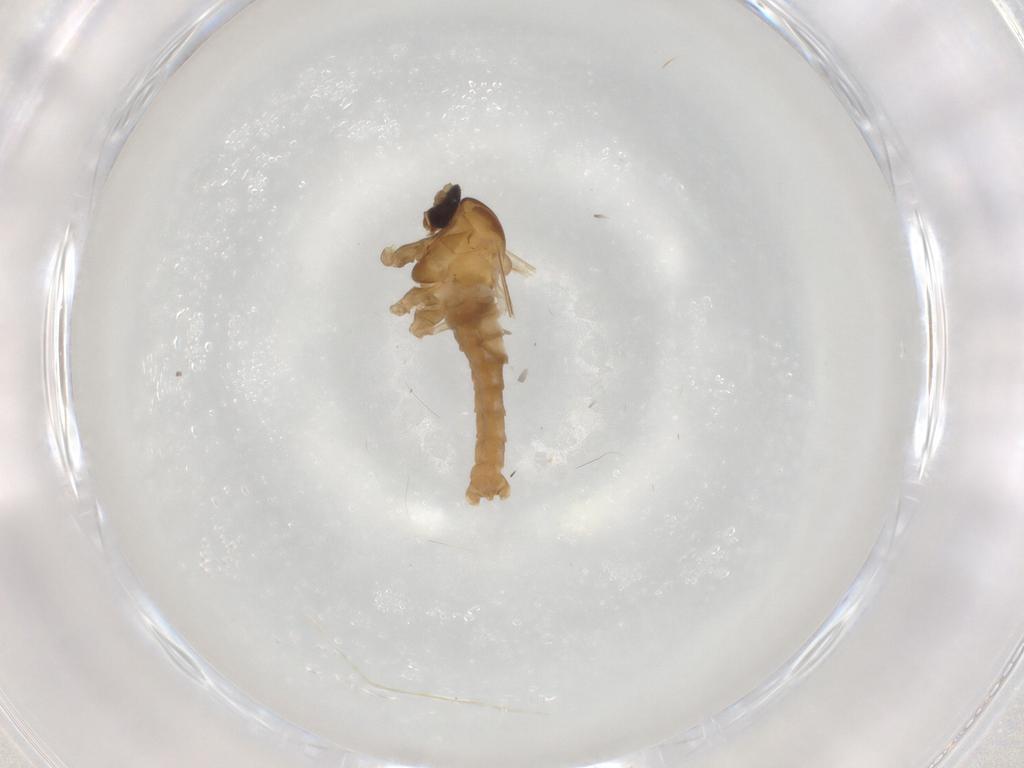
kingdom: Animalia
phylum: Arthropoda
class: Insecta
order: Diptera
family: Cecidomyiidae
